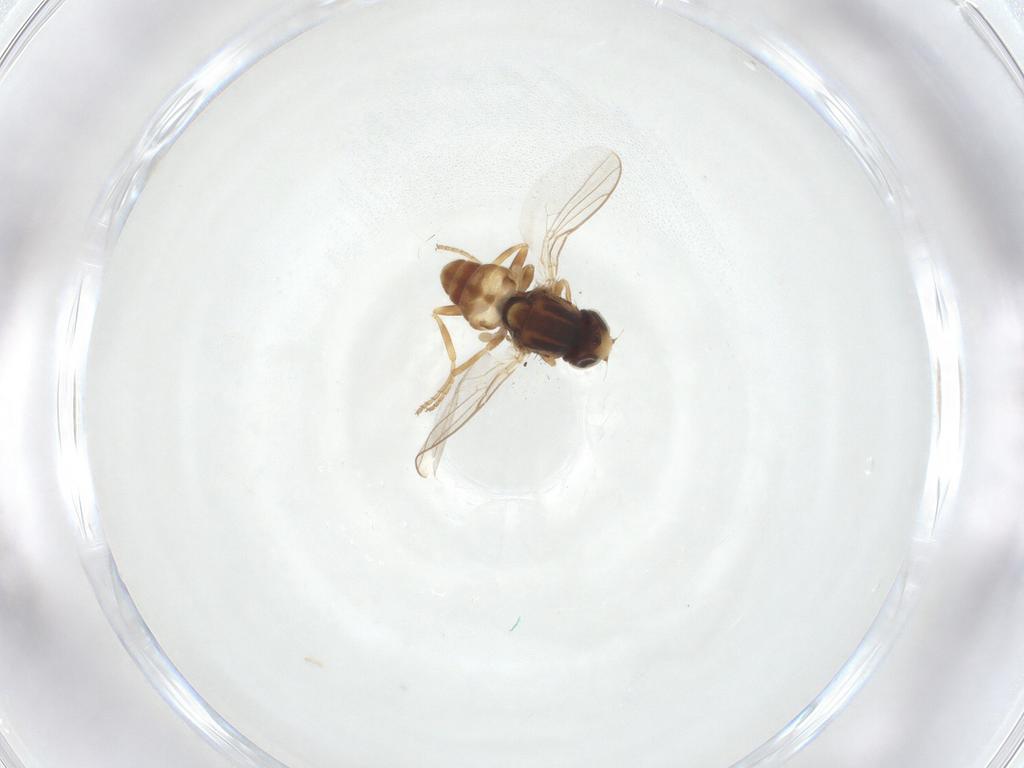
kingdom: Animalia
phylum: Arthropoda
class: Insecta
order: Diptera
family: Chloropidae
